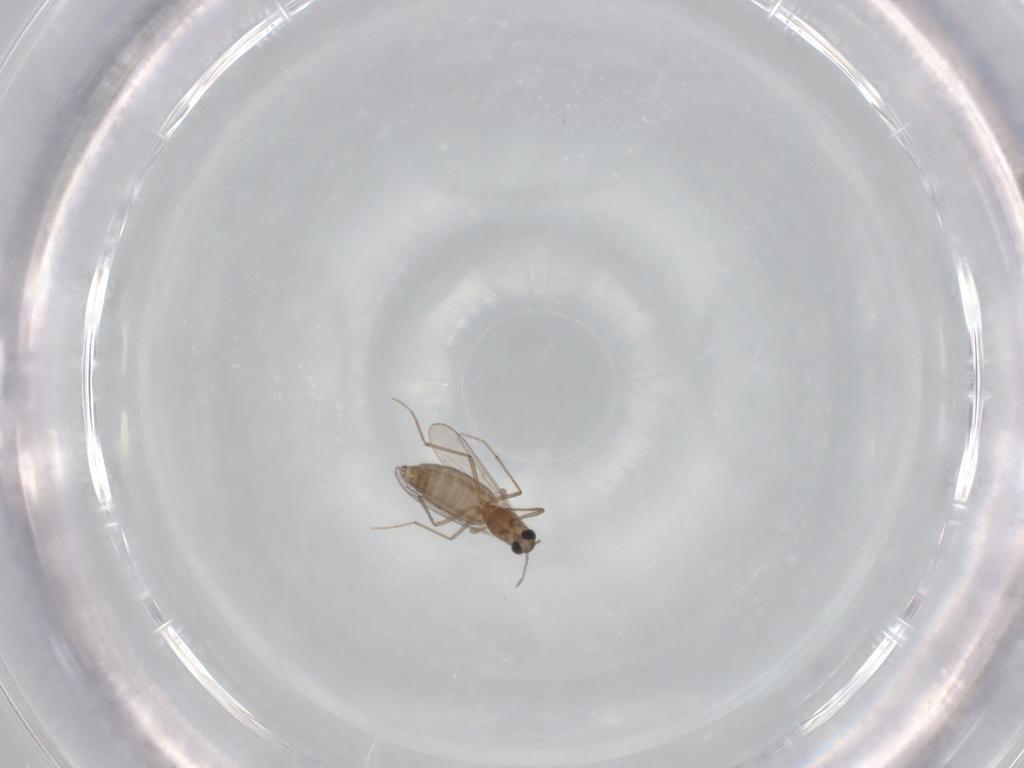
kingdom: Animalia
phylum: Arthropoda
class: Insecta
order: Diptera
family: Chironomidae
